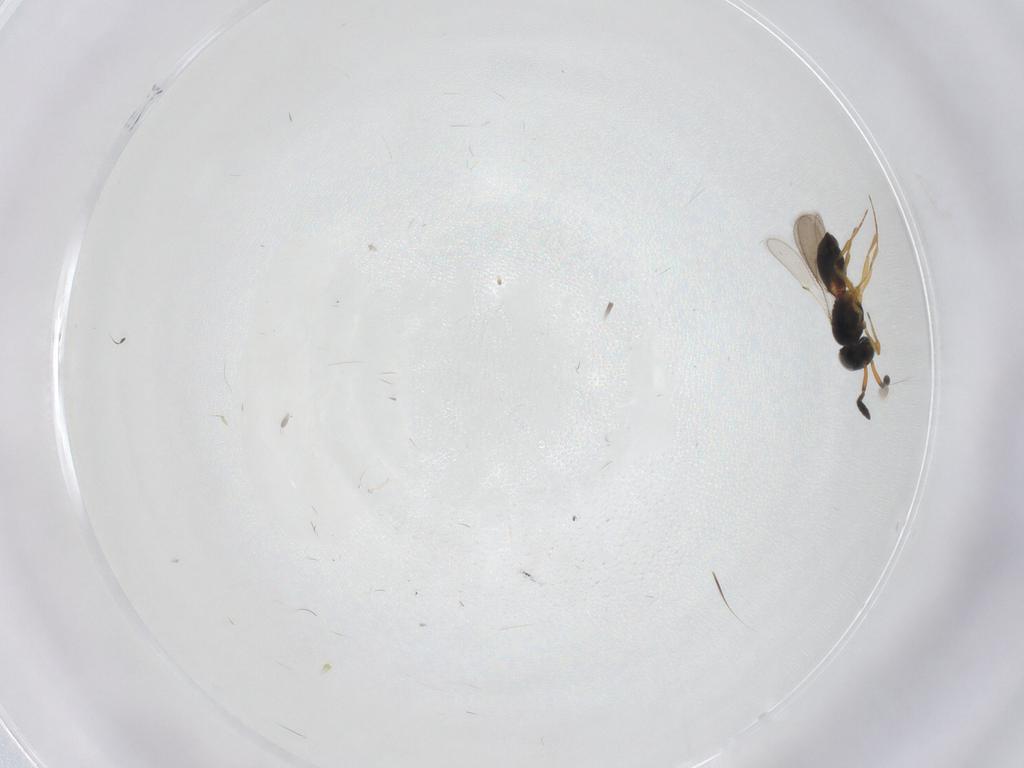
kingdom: Animalia
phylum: Arthropoda
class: Insecta
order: Hymenoptera
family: Scelionidae
